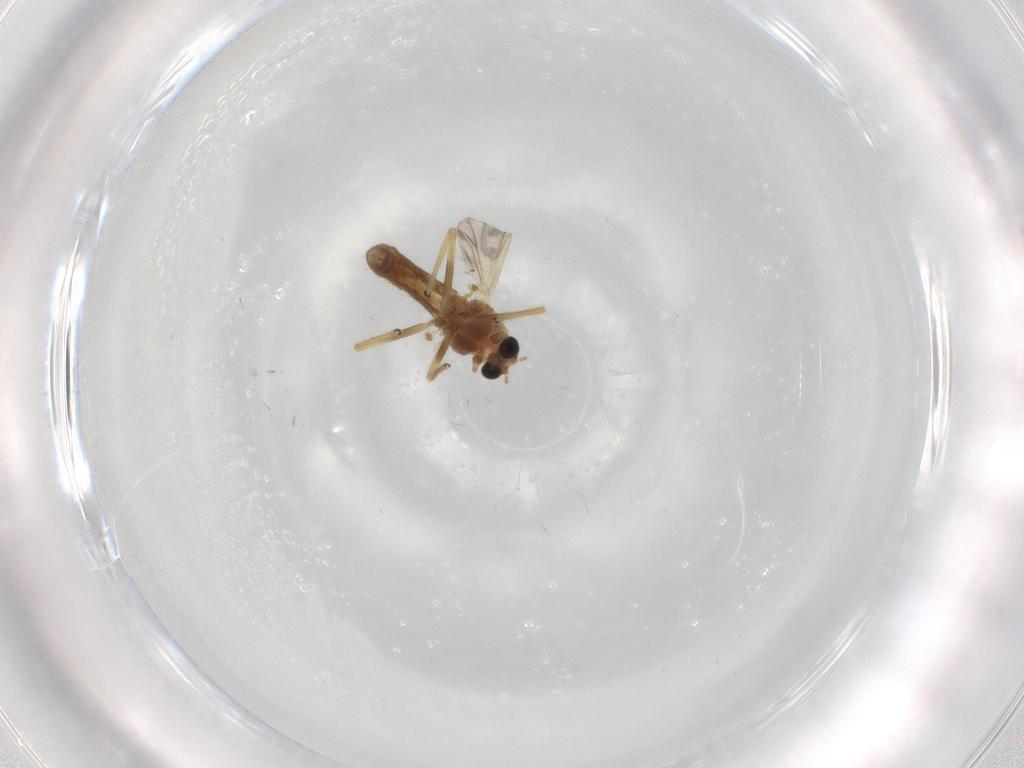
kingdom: Animalia
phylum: Arthropoda
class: Insecta
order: Diptera
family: Chironomidae
